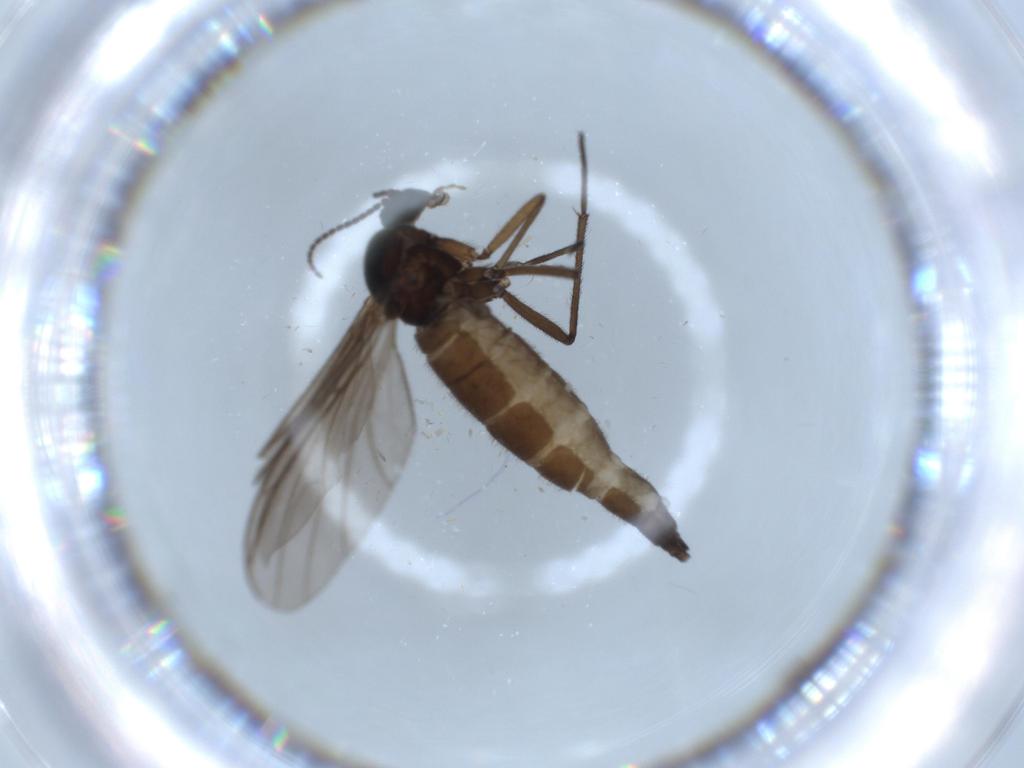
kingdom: Animalia
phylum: Arthropoda
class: Insecta
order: Diptera
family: Sciaridae
